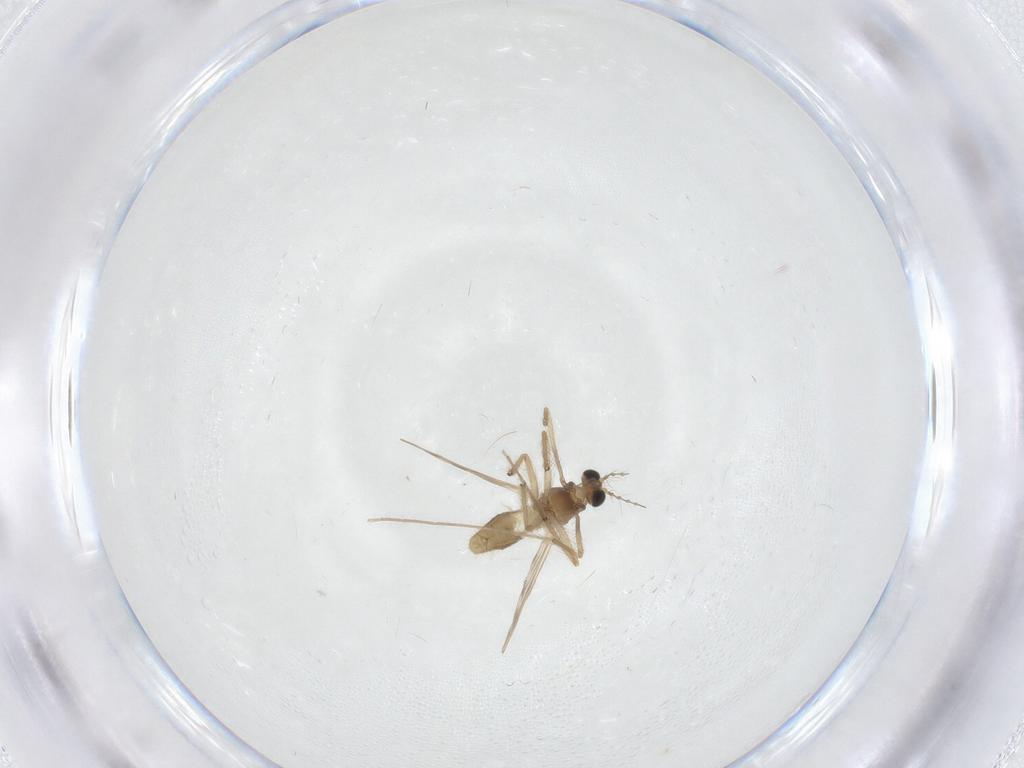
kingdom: Animalia
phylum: Arthropoda
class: Insecta
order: Diptera
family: Chironomidae
